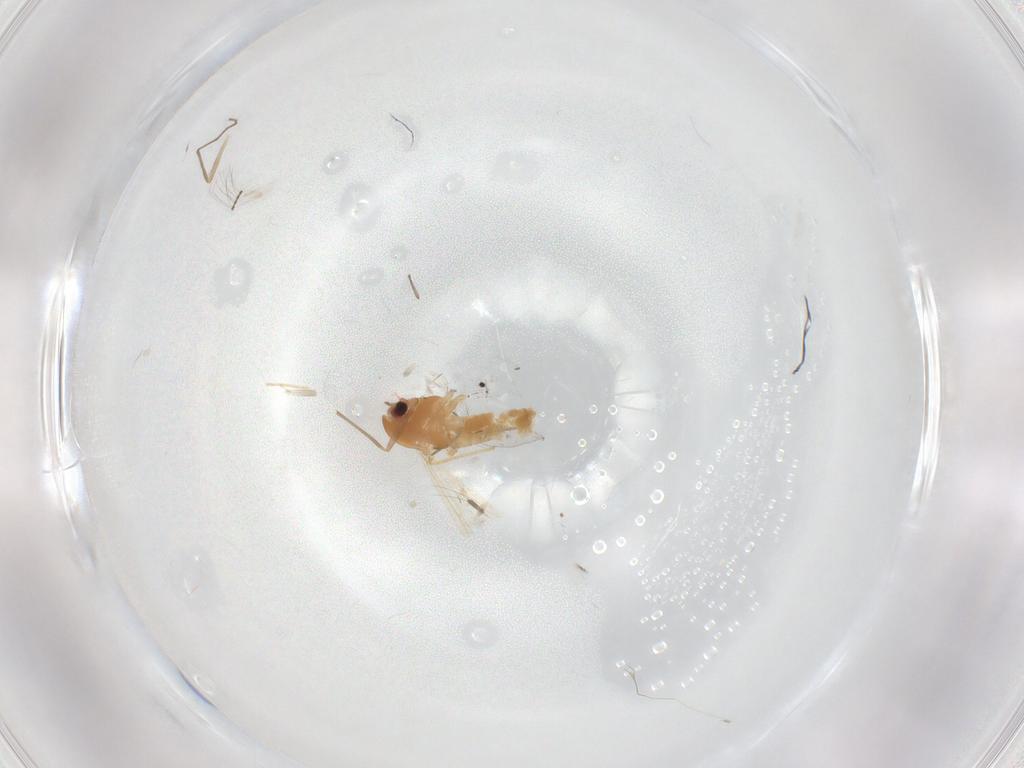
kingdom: Animalia
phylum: Arthropoda
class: Insecta
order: Diptera
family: Chironomidae
